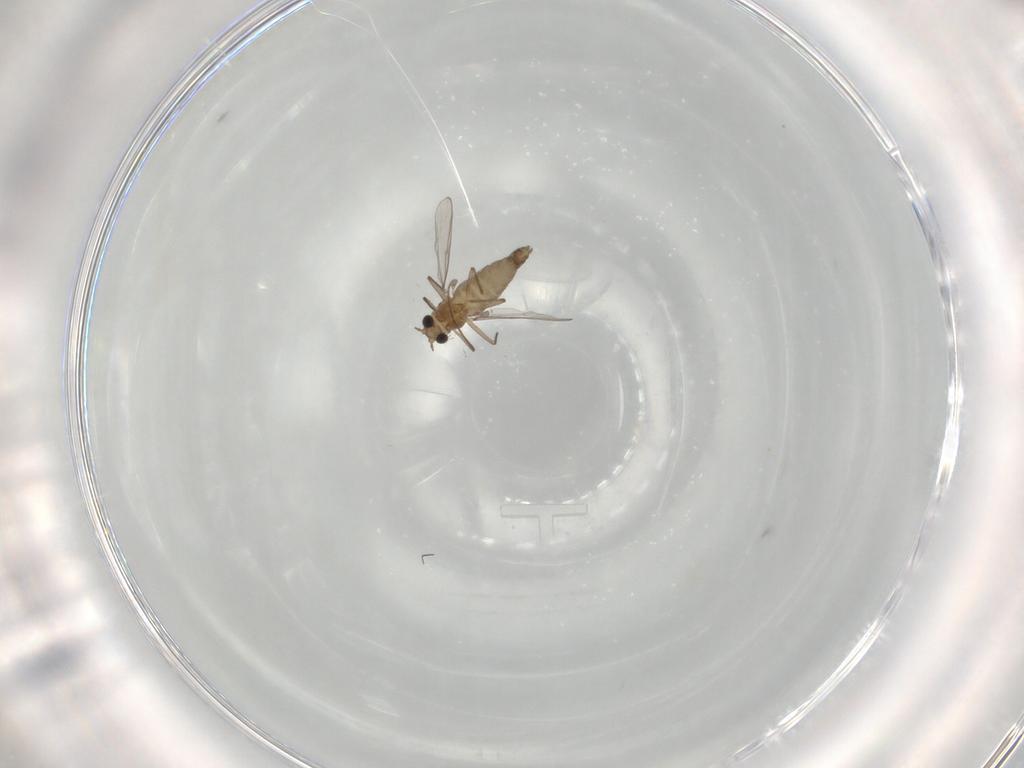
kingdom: Animalia
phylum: Arthropoda
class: Insecta
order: Diptera
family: Chironomidae
